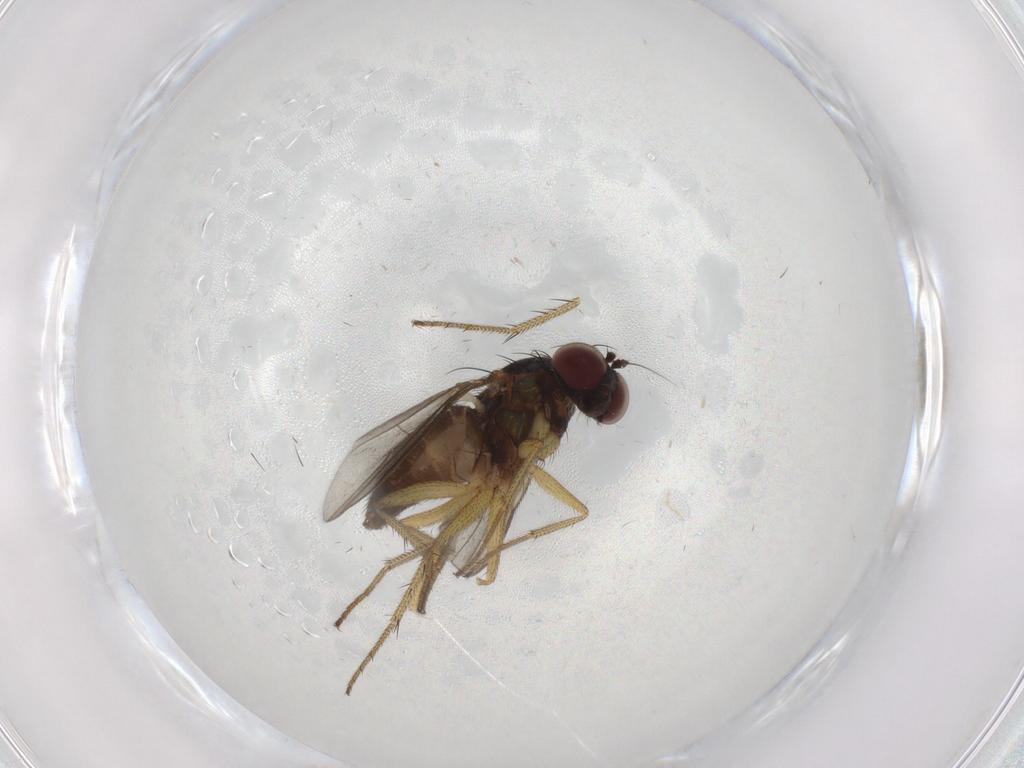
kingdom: Animalia
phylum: Arthropoda
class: Insecta
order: Diptera
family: Dolichopodidae
